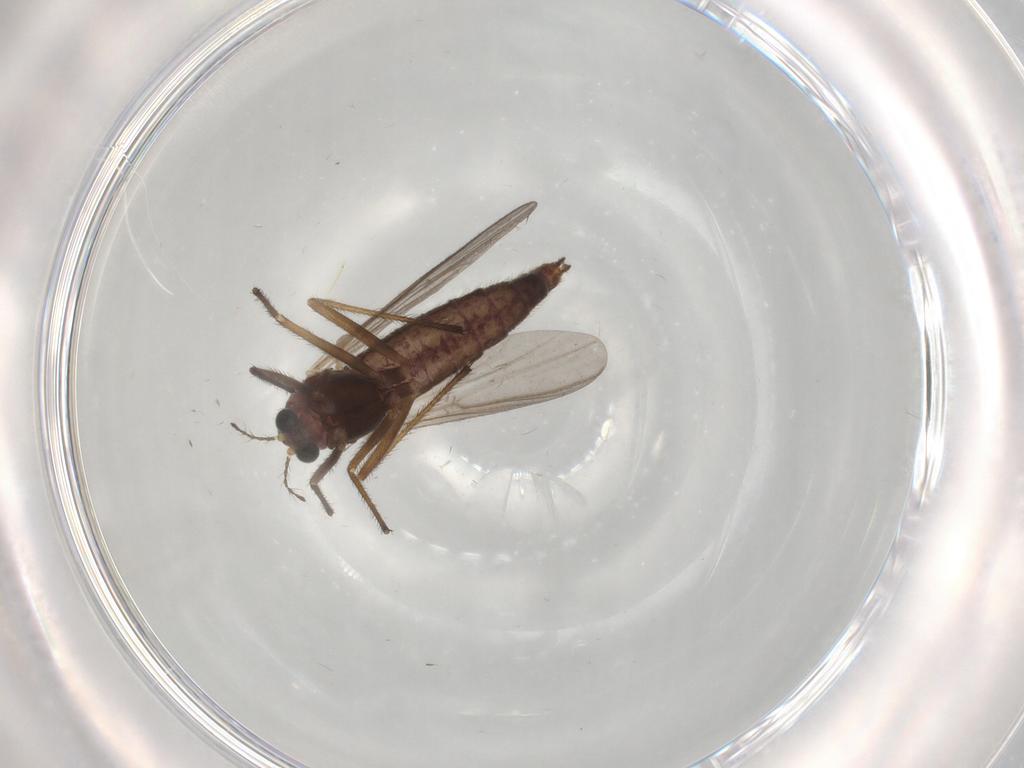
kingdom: Animalia
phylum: Arthropoda
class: Insecta
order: Diptera
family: Chironomidae
